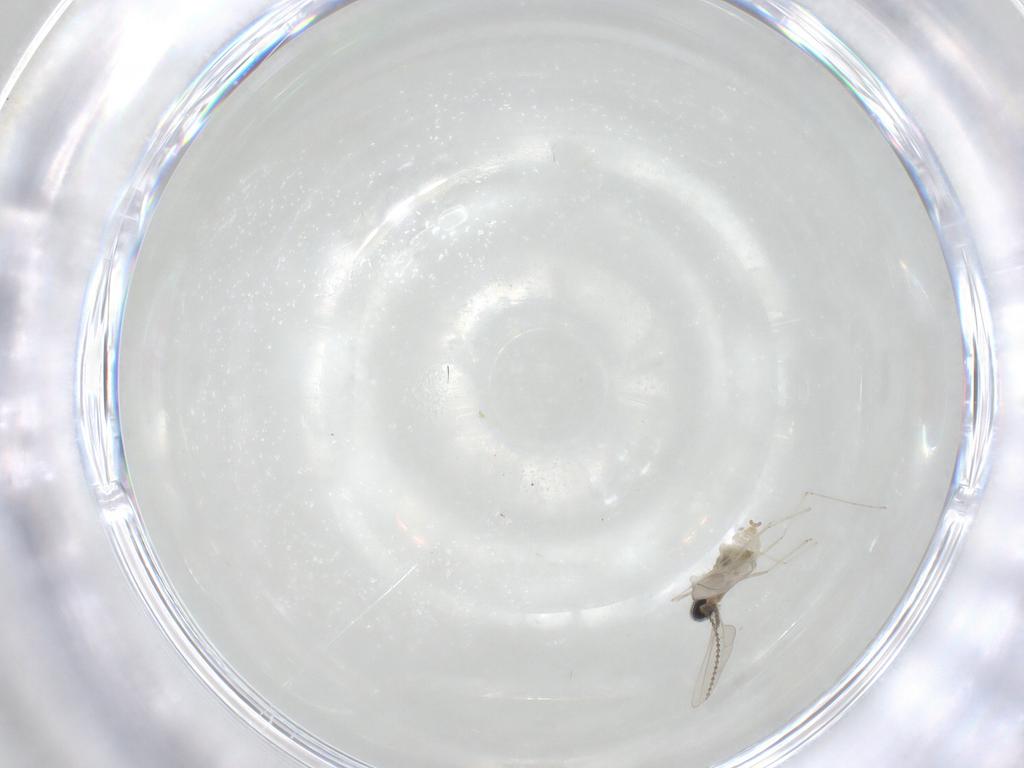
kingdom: Animalia
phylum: Arthropoda
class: Insecta
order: Diptera
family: Cecidomyiidae
